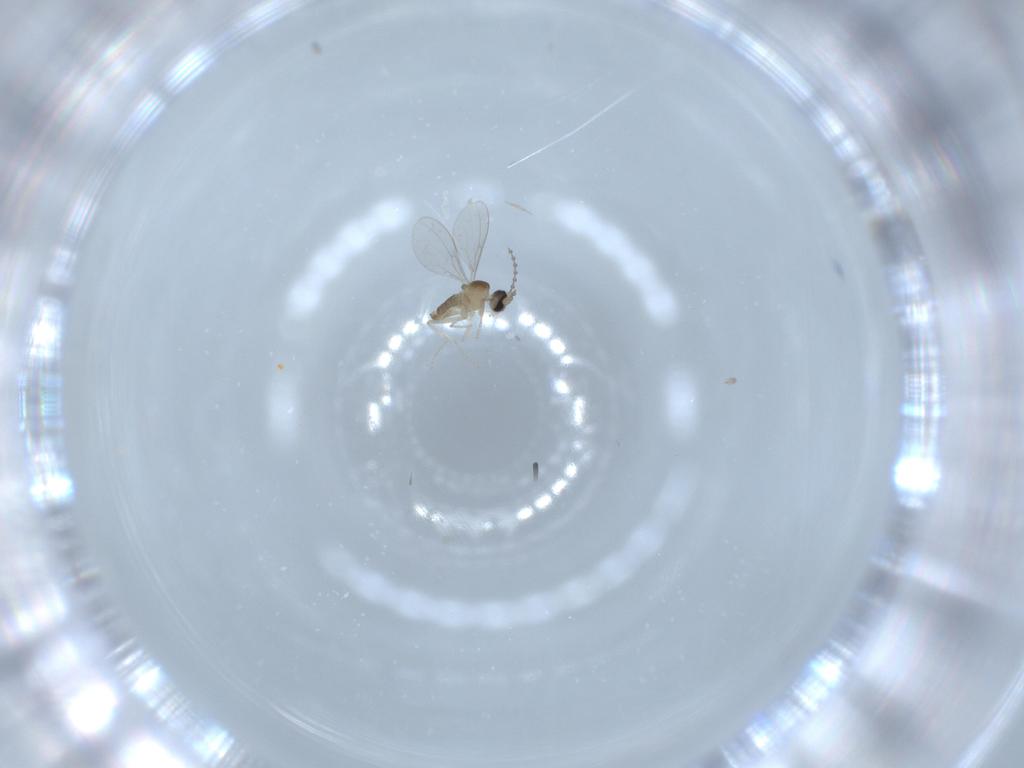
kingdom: Animalia
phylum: Arthropoda
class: Insecta
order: Diptera
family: Cecidomyiidae
